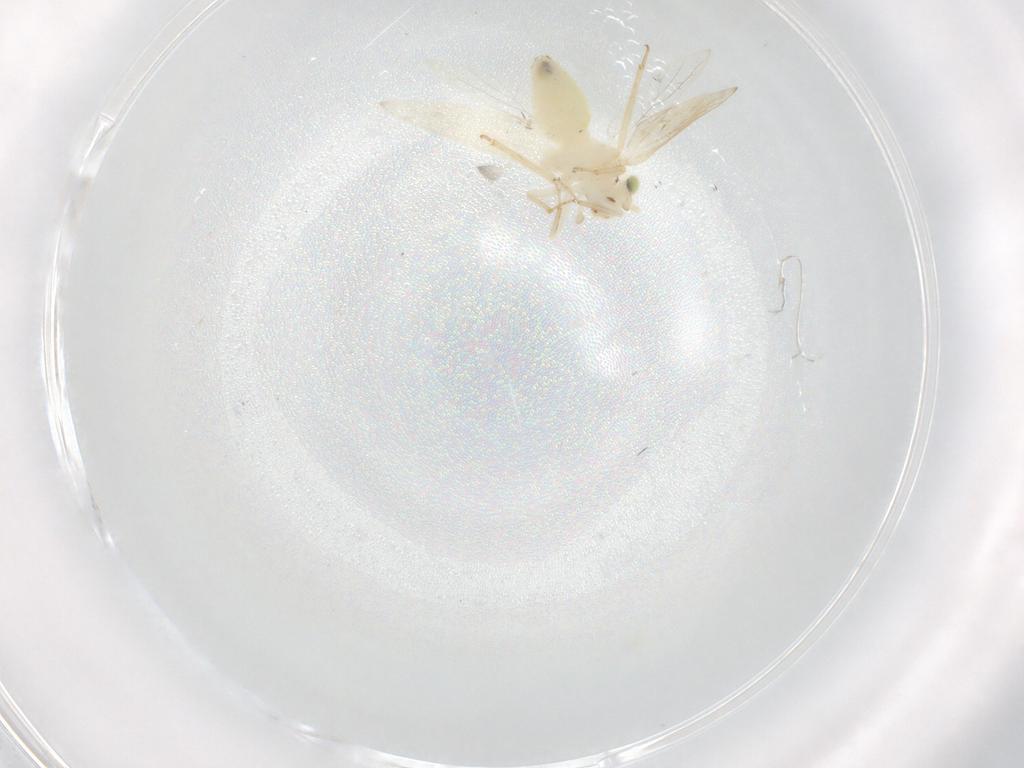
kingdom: Animalia
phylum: Arthropoda
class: Insecta
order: Psocodea
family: Lepidopsocidae
